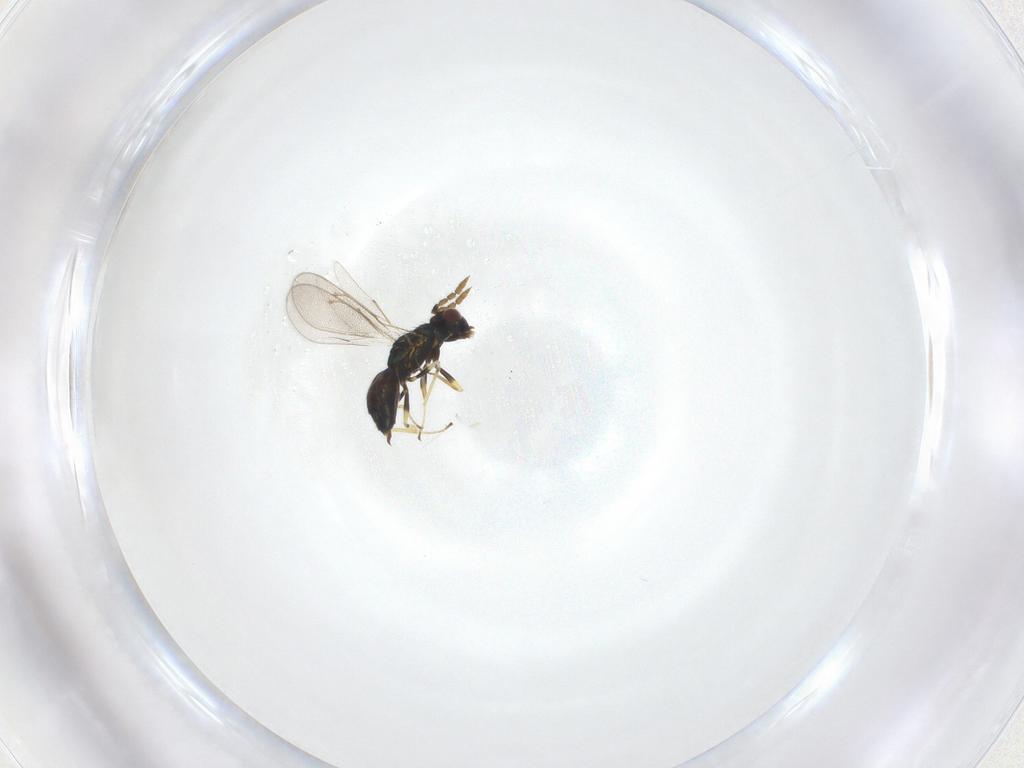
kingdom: Animalia
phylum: Arthropoda
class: Insecta
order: Hymenoptera
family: Eulophidae
